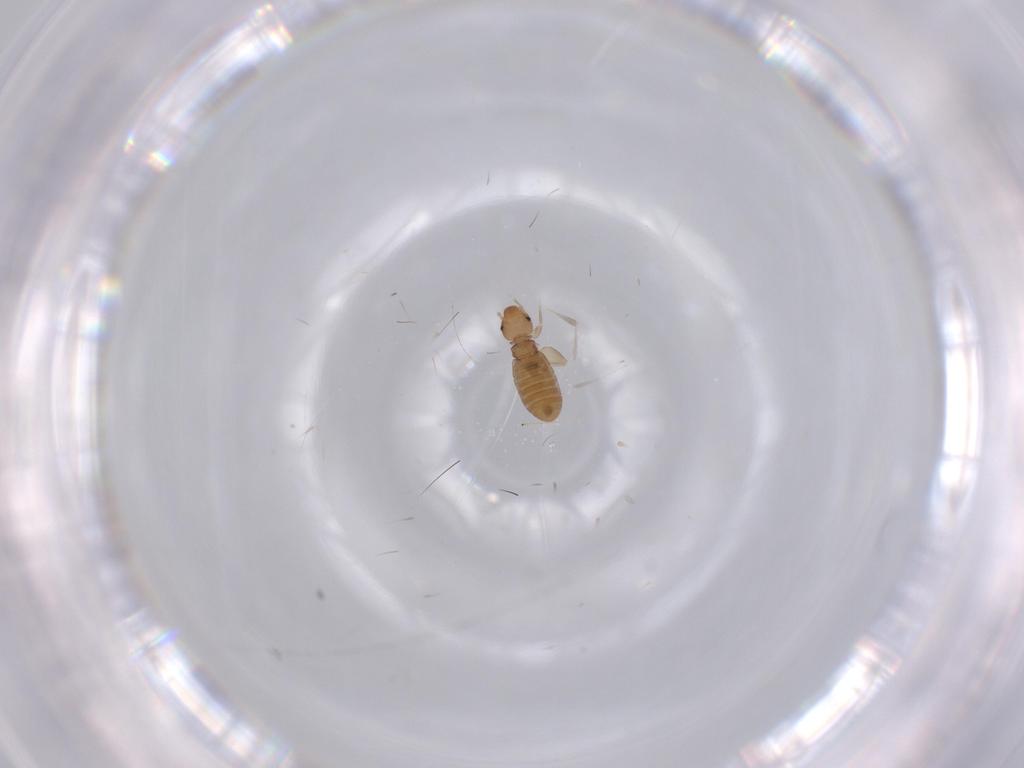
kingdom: Animalia
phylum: Arthropoda
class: Insecta
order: Psocodea
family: Liposcelididae
